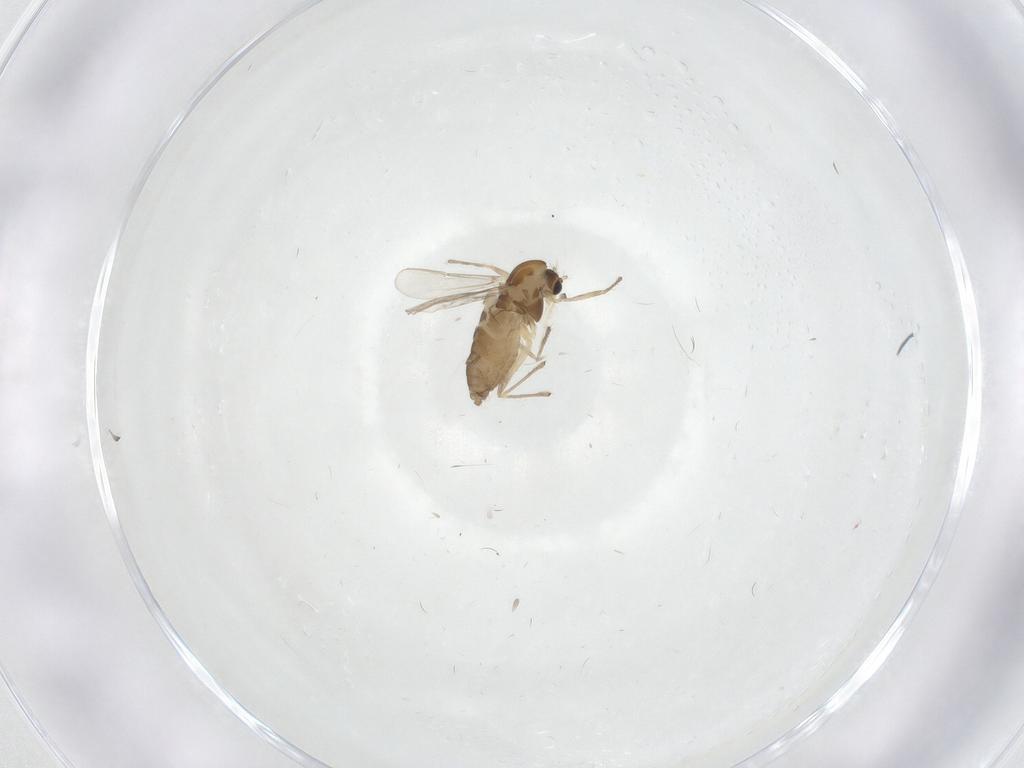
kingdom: Animalia
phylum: Arthropoda
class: Insecta
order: Diptera
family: Chironomidae
